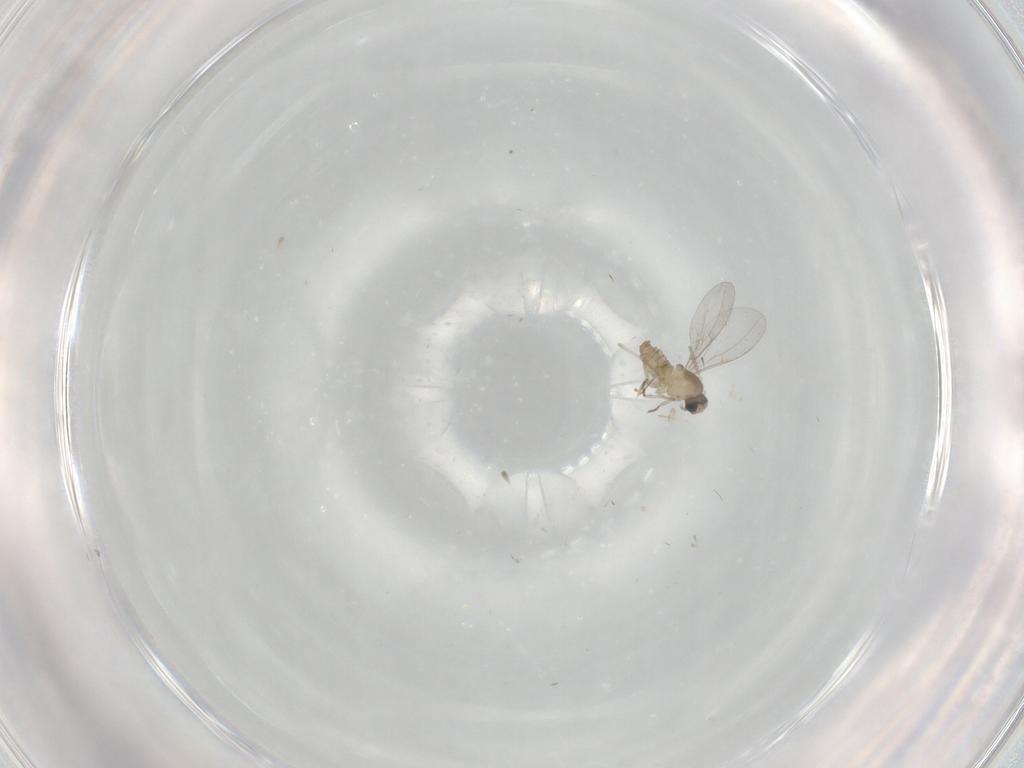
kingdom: Animalia
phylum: Arthropoda
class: Insecta
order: Diptera
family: Cecidomyiidae
